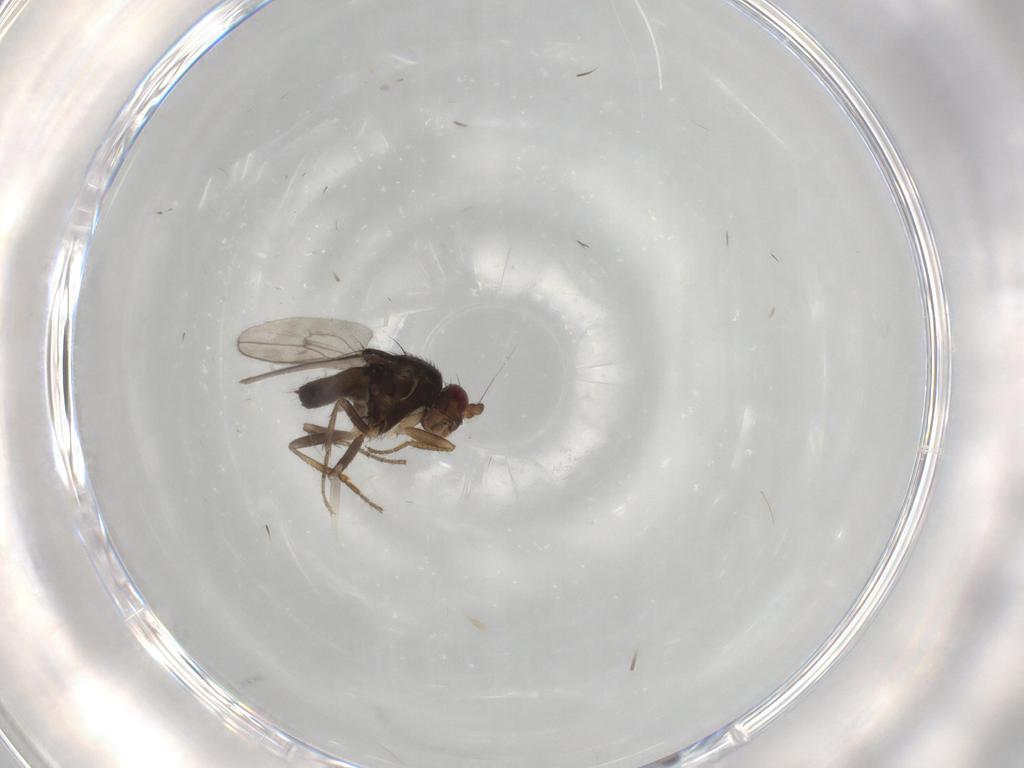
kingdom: Animalia
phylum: Arthropoda
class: Insecta
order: Diptera
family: Sphaeroceridae
